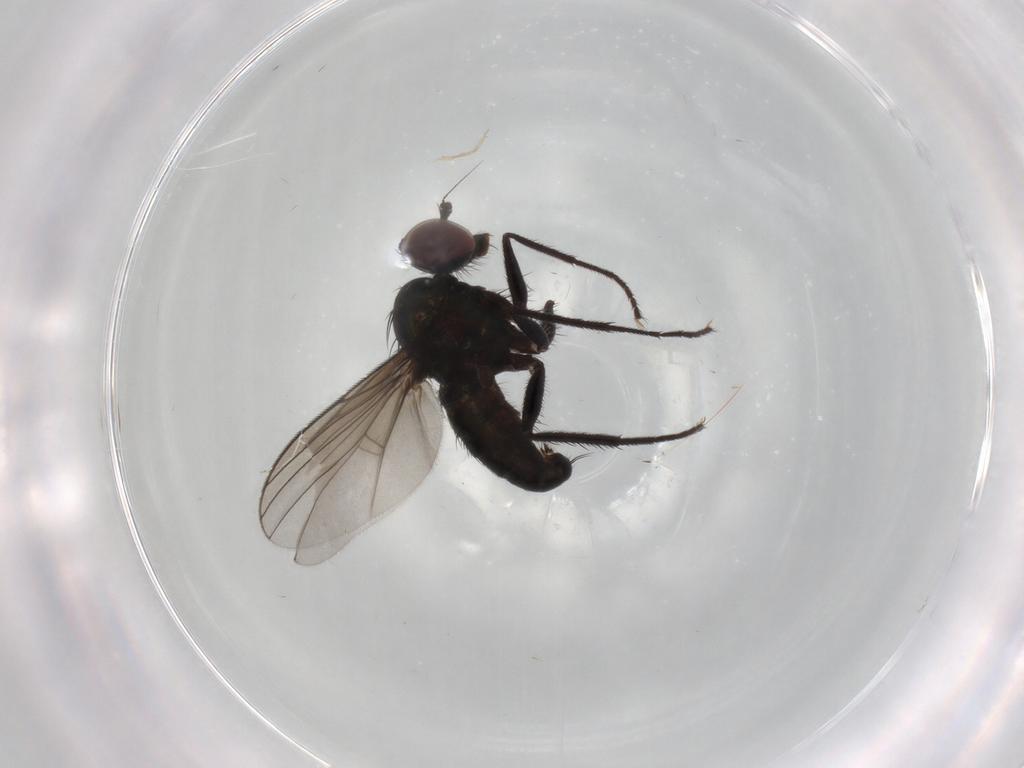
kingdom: Animalia
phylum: Arthropoda
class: Insecta
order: Diptera
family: Dolichopodidae
